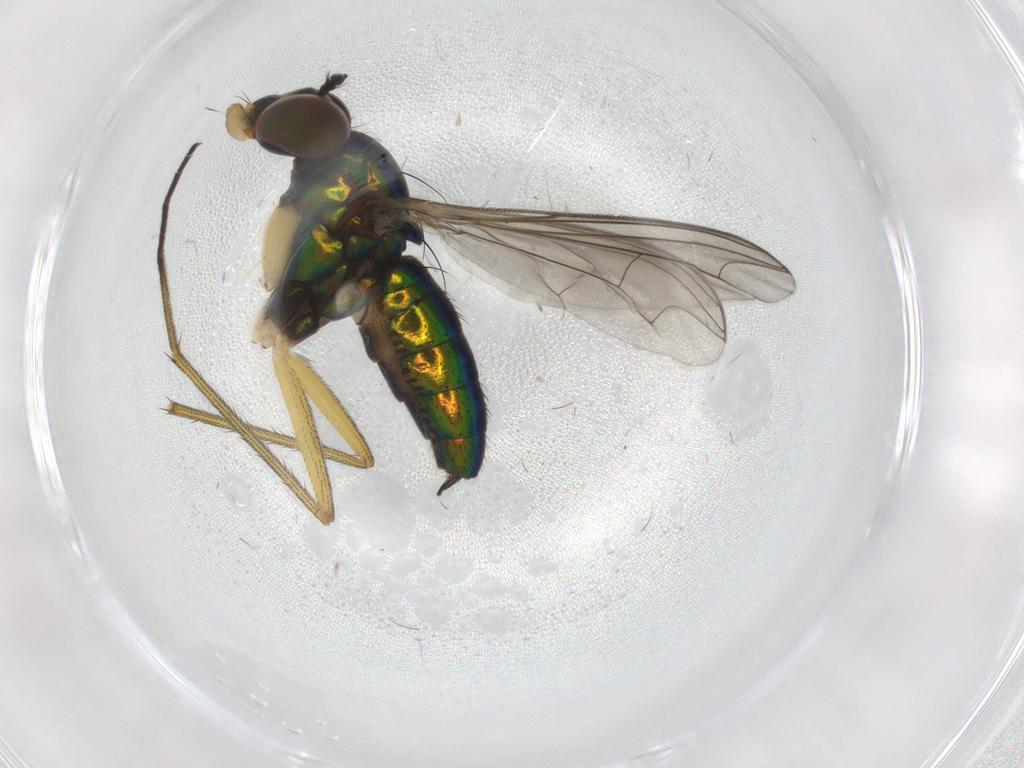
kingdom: Animalia
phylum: Arthropoda
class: Insecta
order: Diptera
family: Dolichopodidae
